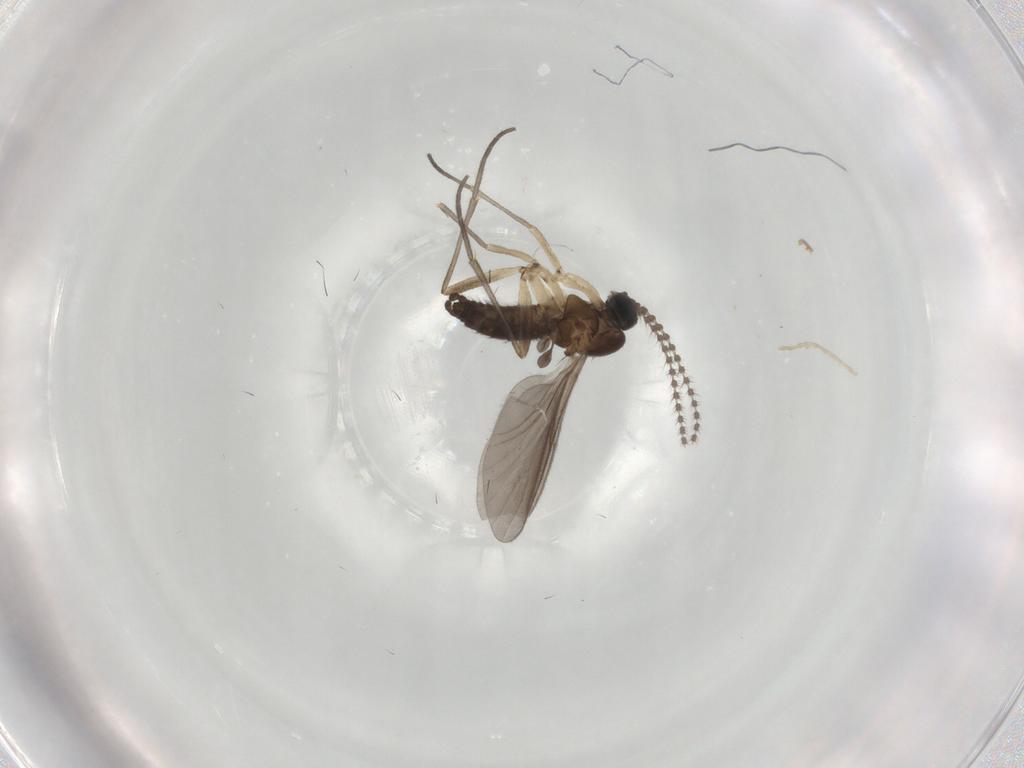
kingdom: Animalia
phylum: Arthropoda
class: Insecta
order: Diptera
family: Sciaridae
